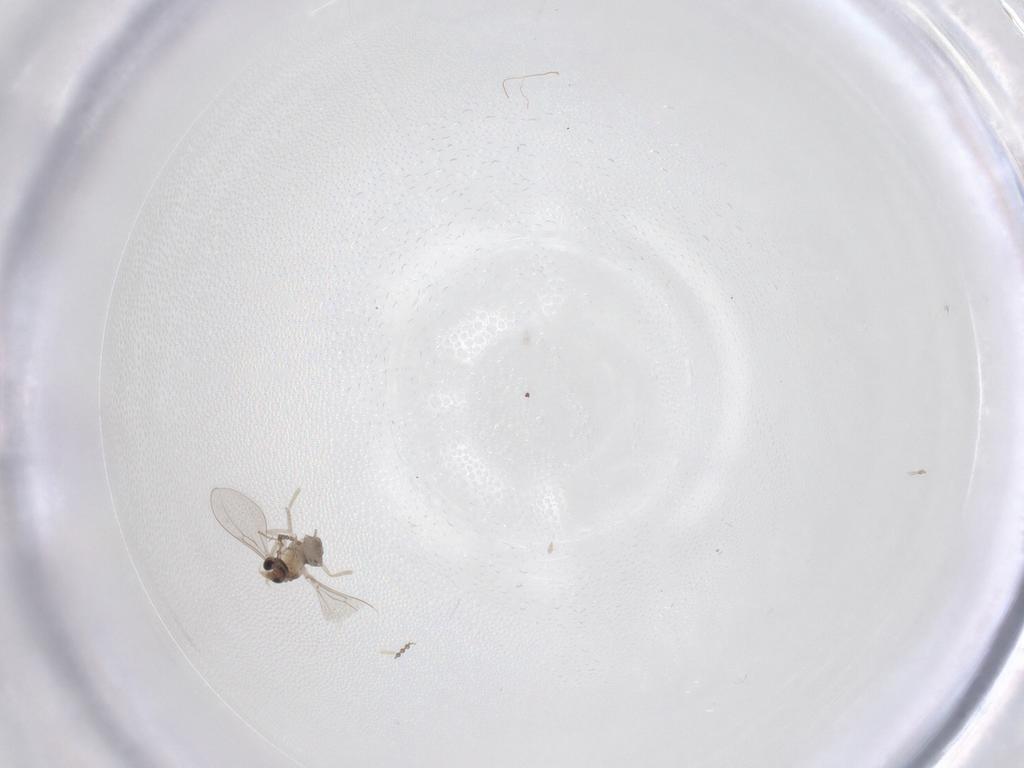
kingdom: Animalia
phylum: Arthropoda
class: Insecta
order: Diptera
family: Cecidomyiidae
